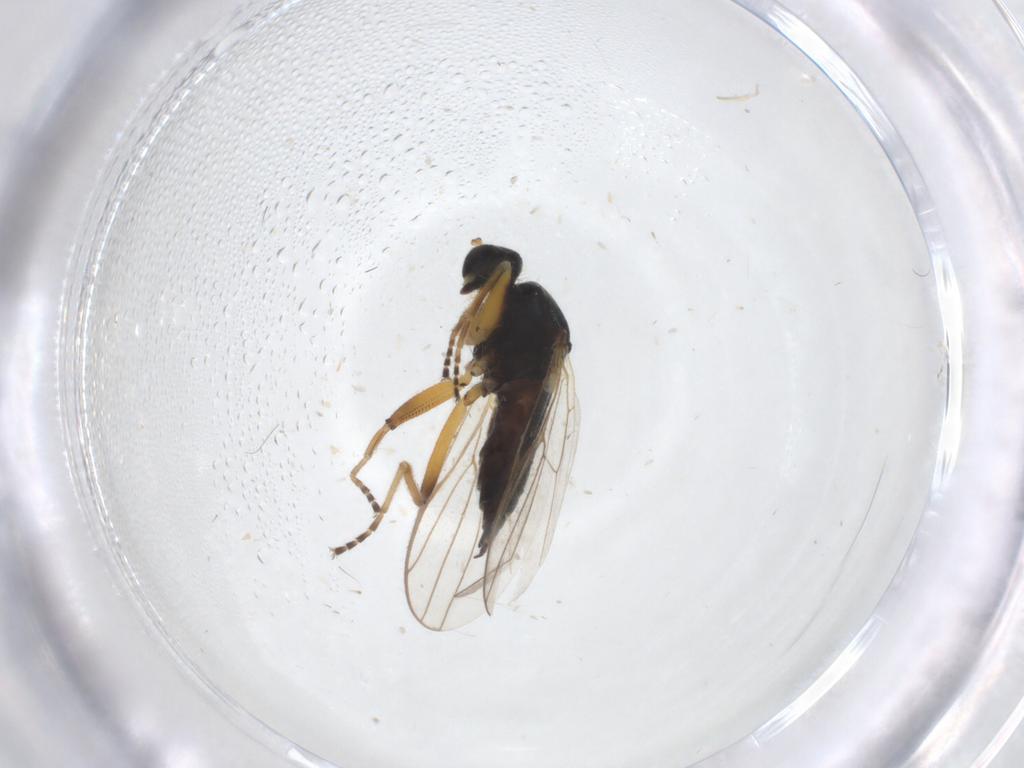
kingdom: Animalia
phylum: Arthropoda
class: Insecta
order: Diptera
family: Hybotidae
